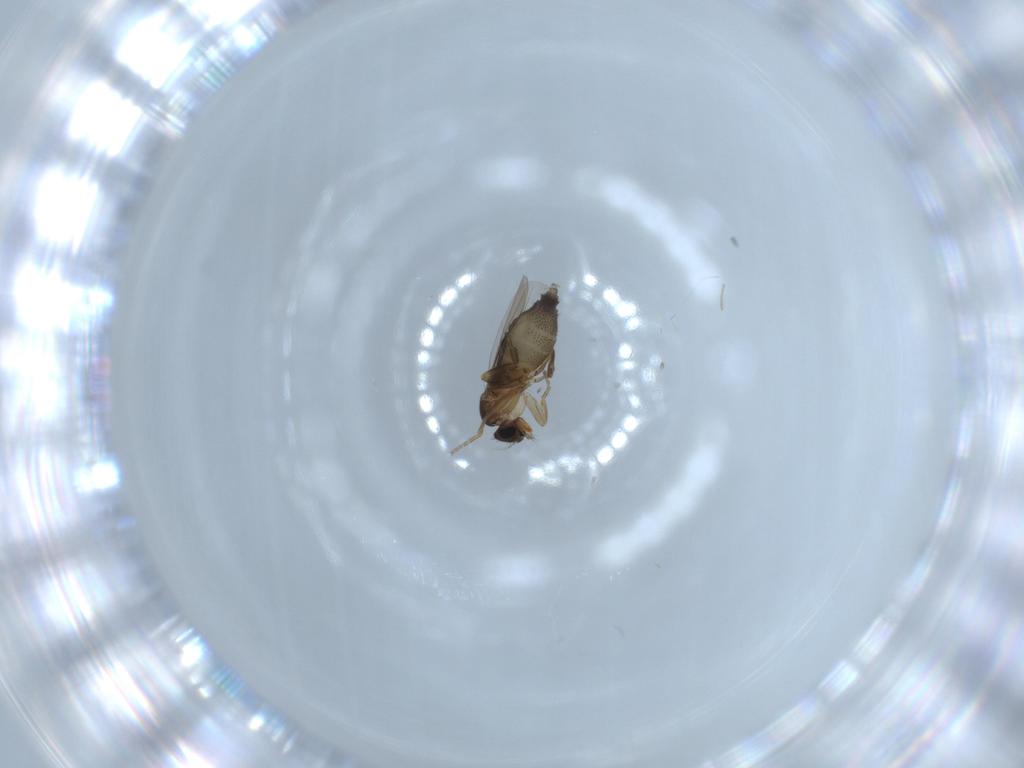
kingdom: Animalia
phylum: Arthropoda
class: Insecta
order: Diptera
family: Phoridae
